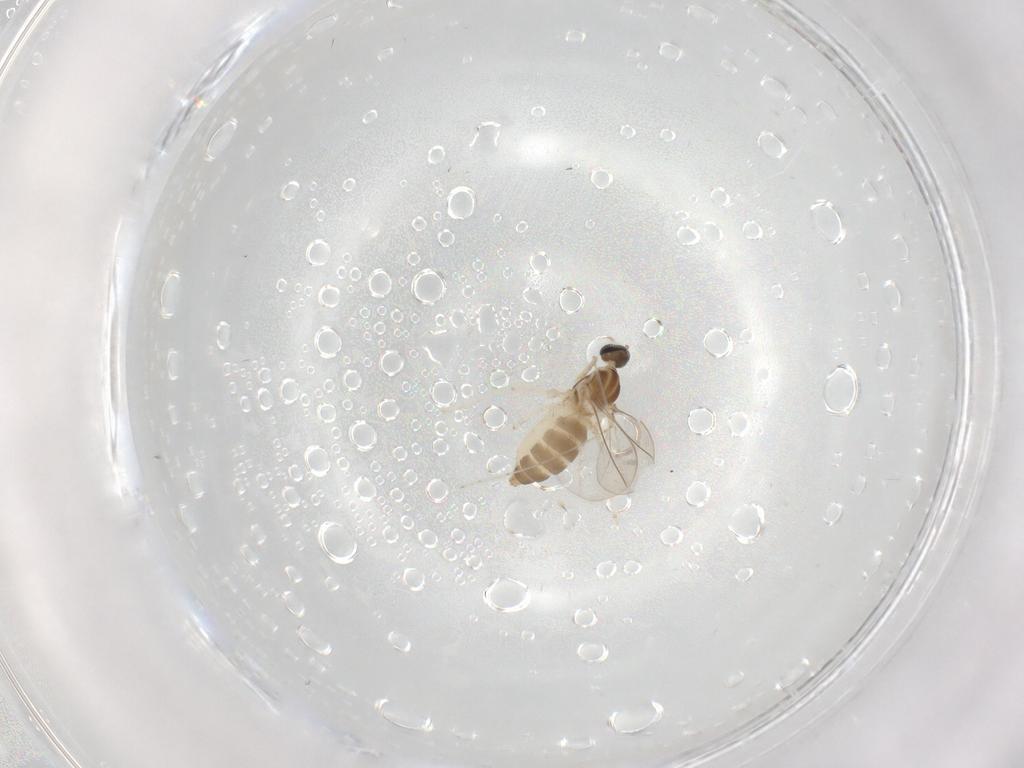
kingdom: Animalia
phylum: Arthropoda
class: Insecta
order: Diptera
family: Cecidomyiidae
